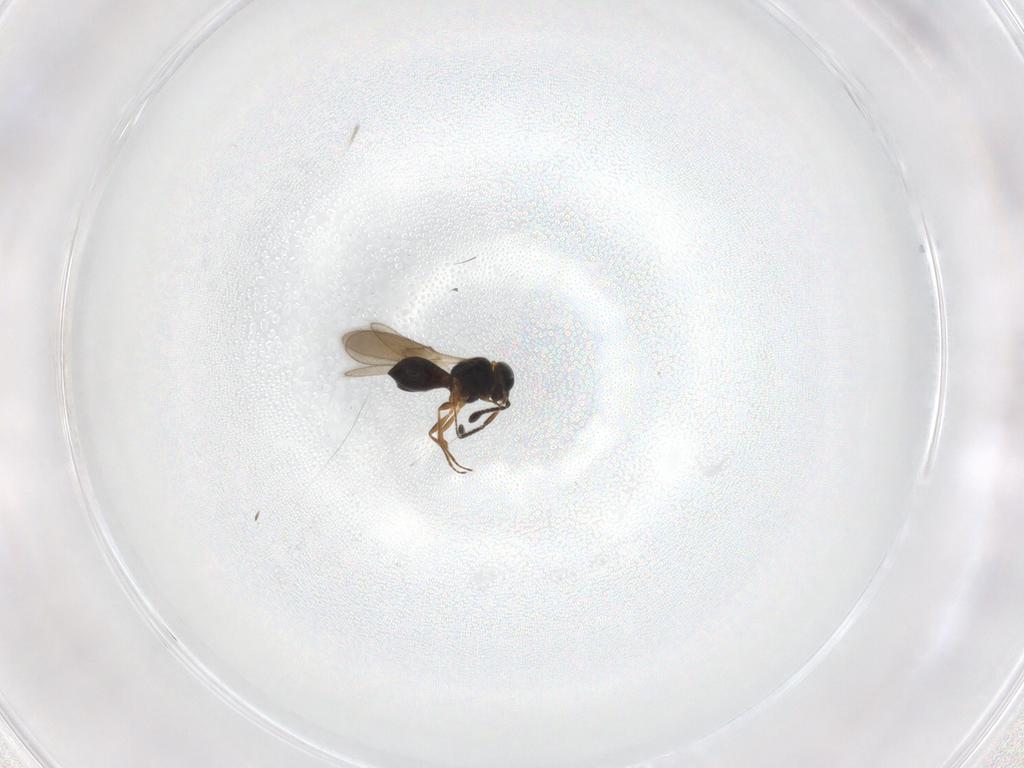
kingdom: Animalia
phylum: Arthropoda
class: Insecta
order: Hymenoptera
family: Scelionidae
